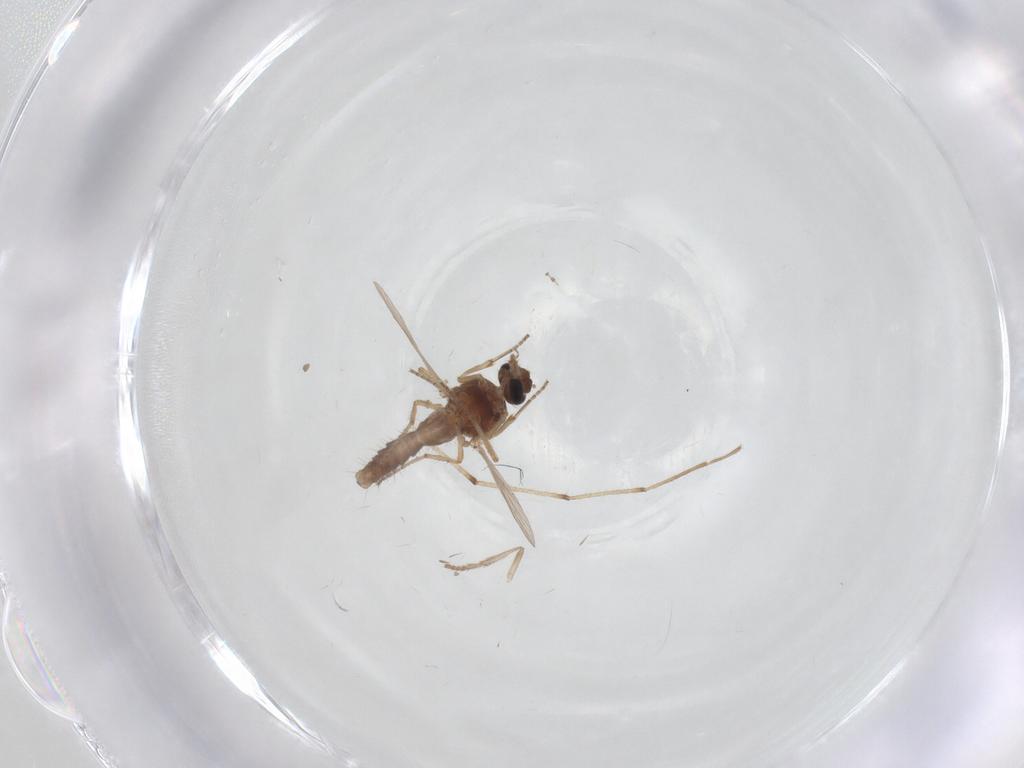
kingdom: Animalia
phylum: Arthropoda
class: Insecta
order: Diptera
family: Ceratopogonidae
